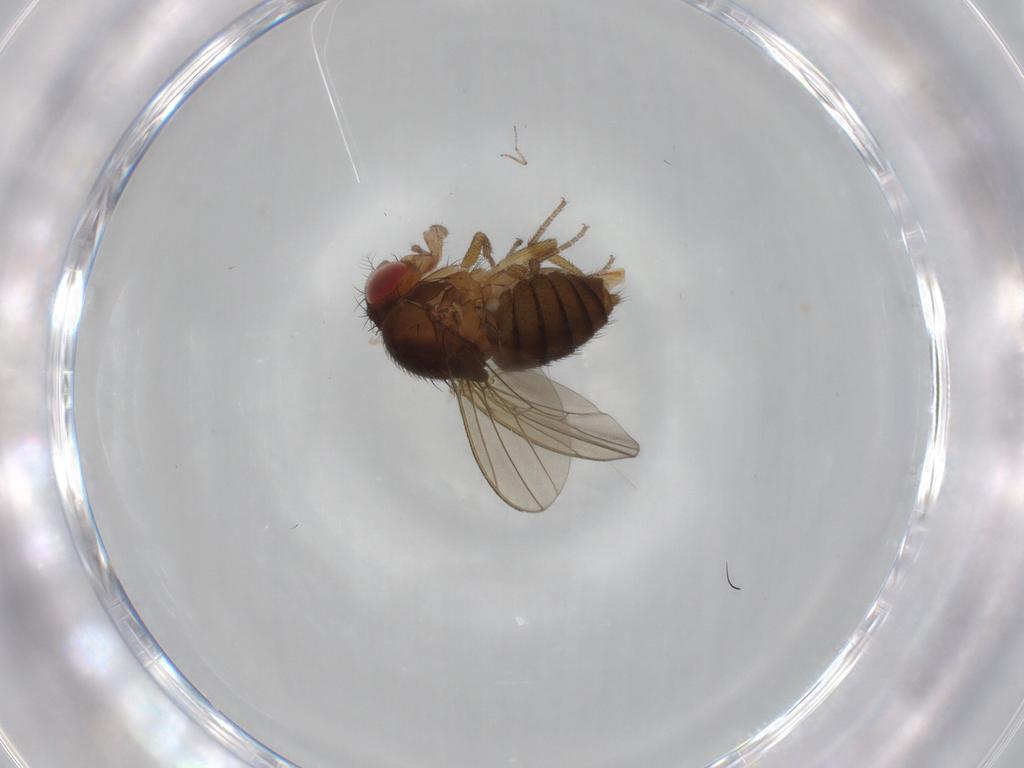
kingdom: Animalia
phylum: Arthropoda
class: Insecta
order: Diptera
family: Drosophilidae
